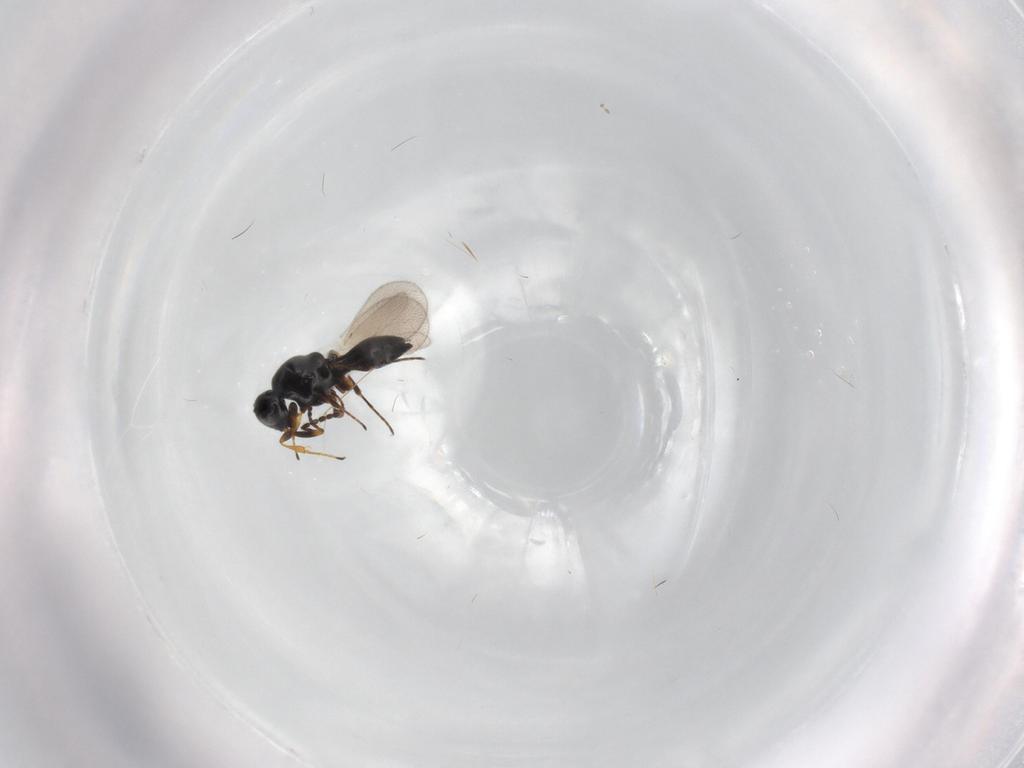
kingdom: Animalia
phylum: Arthropoda
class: Insecta
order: Hymenoptera
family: Platygastridae
